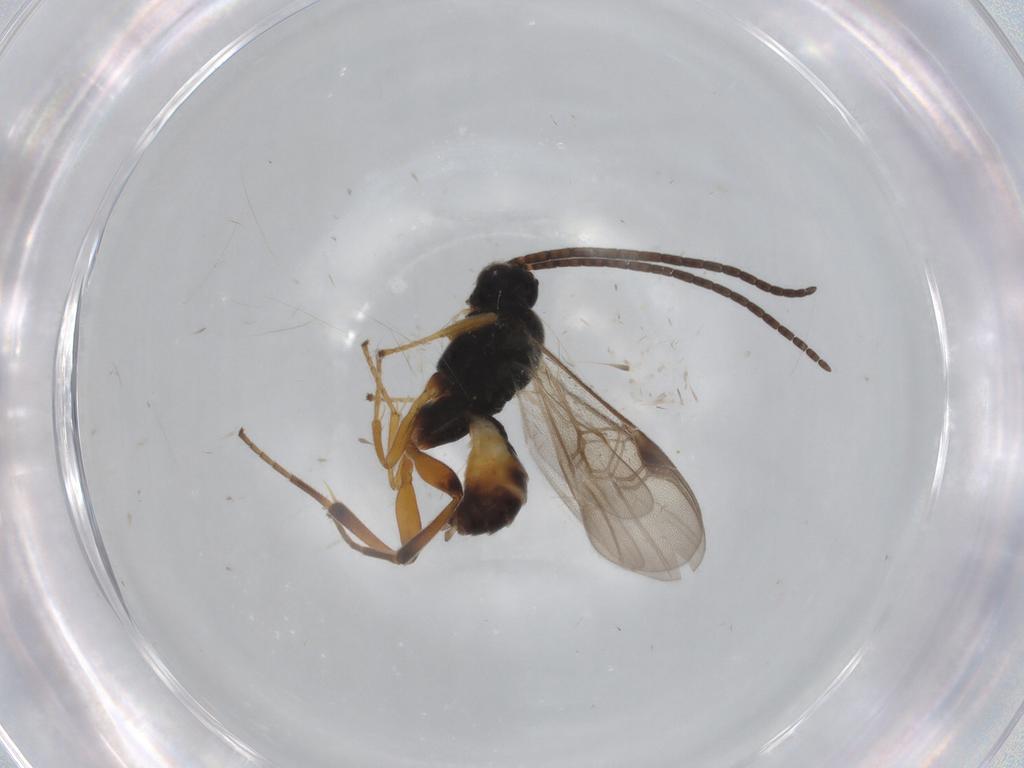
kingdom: Animalia
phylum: Arthropoda
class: Insecta
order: Hymenoptera
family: Braconidae
